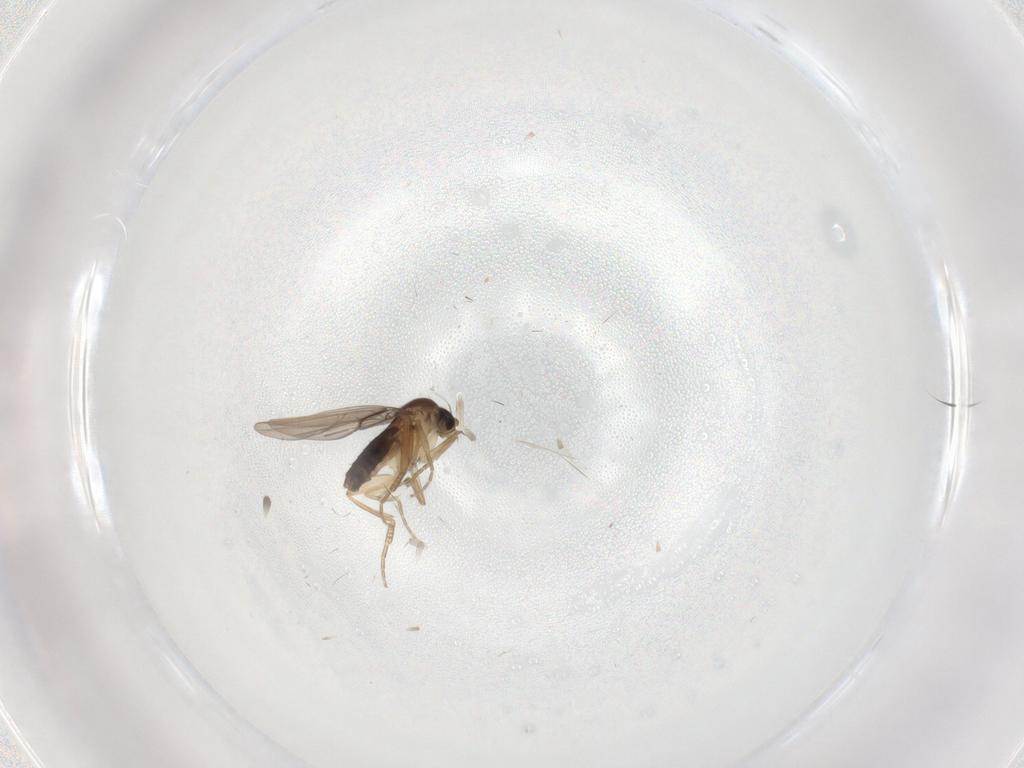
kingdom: Animalia
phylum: Arthropoda
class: Insecta
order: Diptera
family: Phoridae
